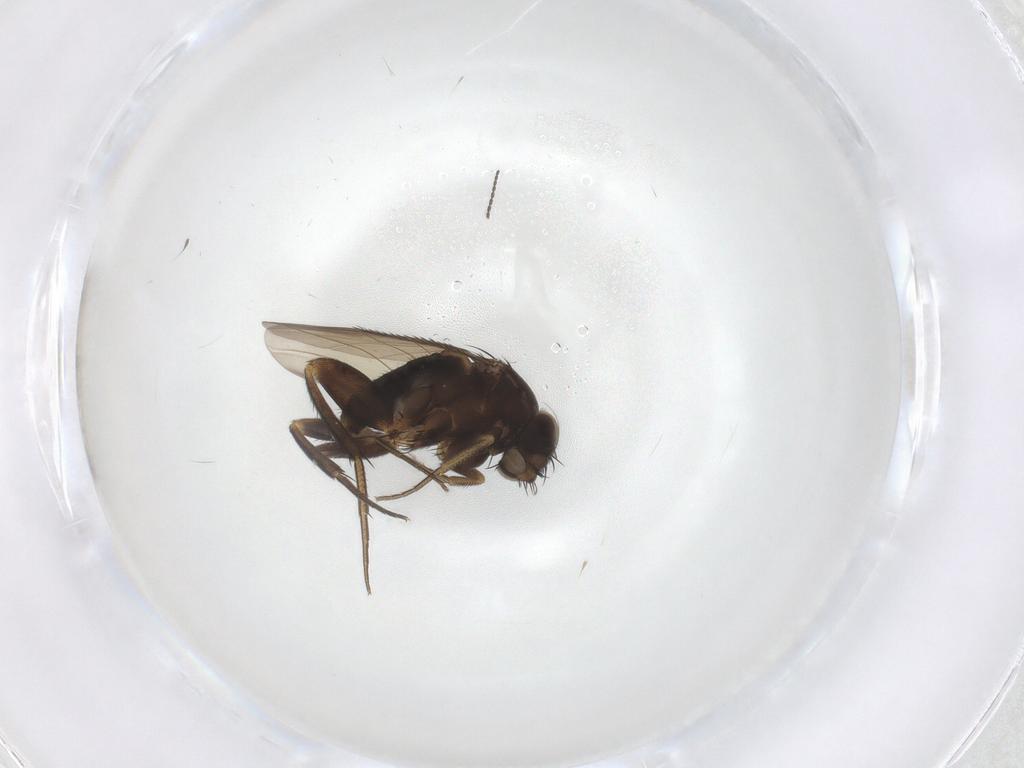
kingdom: Animalia
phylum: Arthropoda
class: Insecta
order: Diptera
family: Phoridae
